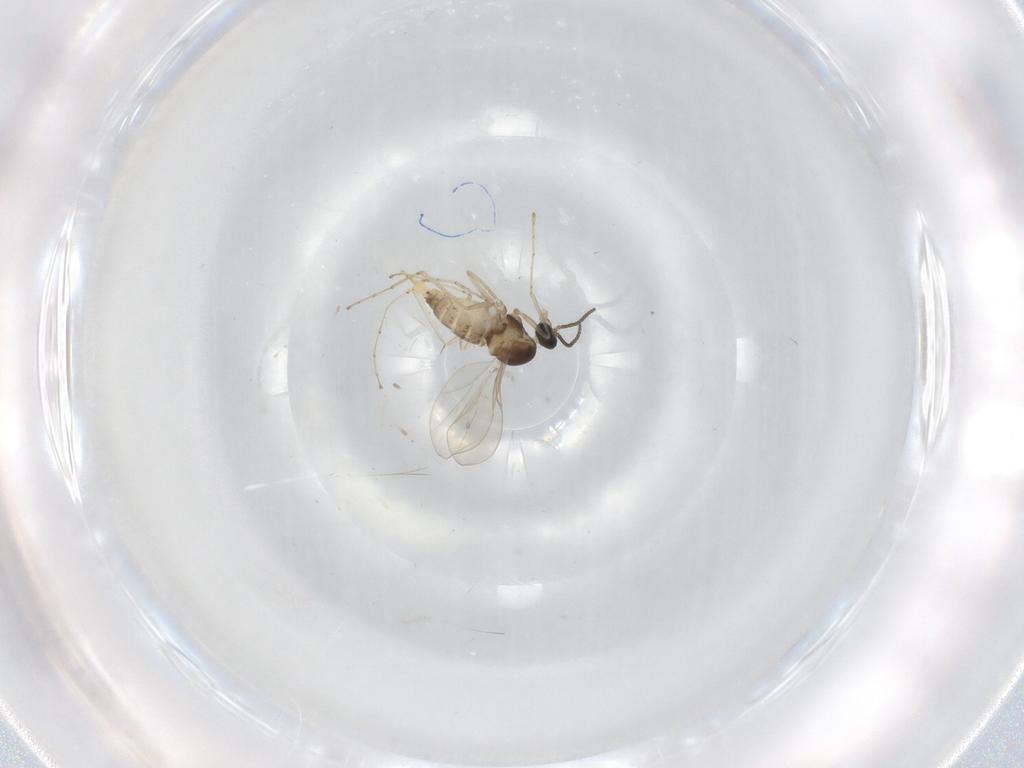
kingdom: Animalia
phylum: Arthropoda
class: Insecta
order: Diptera
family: Cecidomyiidae
